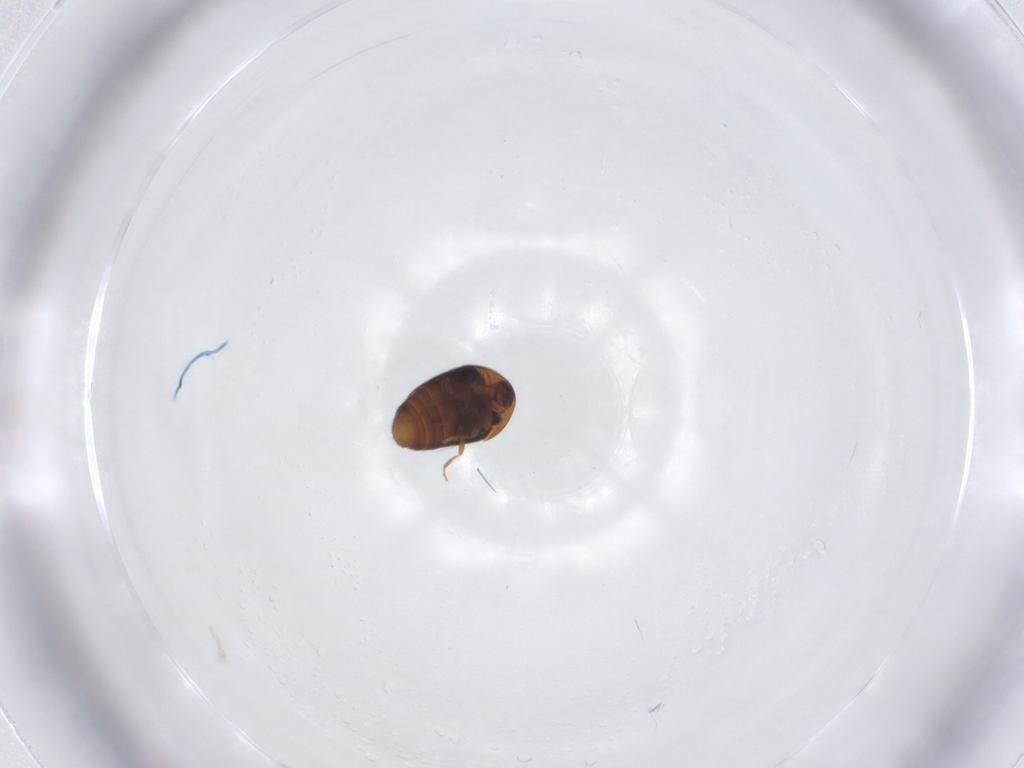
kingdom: Animalia
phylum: Arthropoda
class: Insecta
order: Coleoptera
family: Corylophidae
